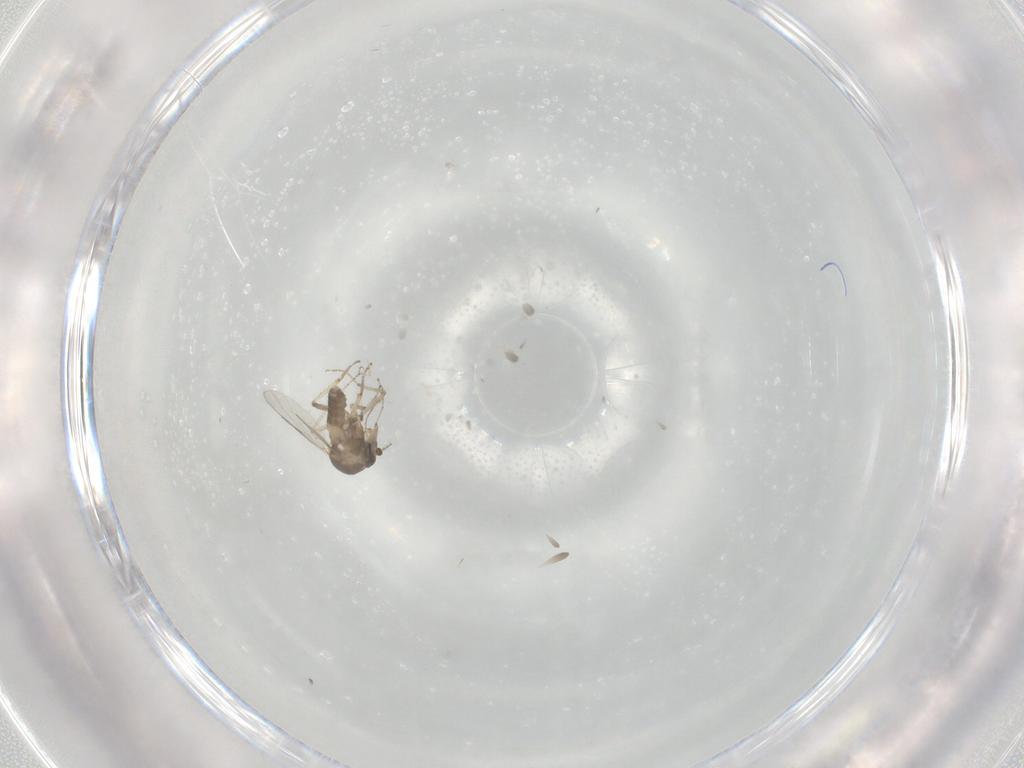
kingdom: Animalia
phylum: Arthropoda
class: Insecta
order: Diptera
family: Ceratopogonidae
